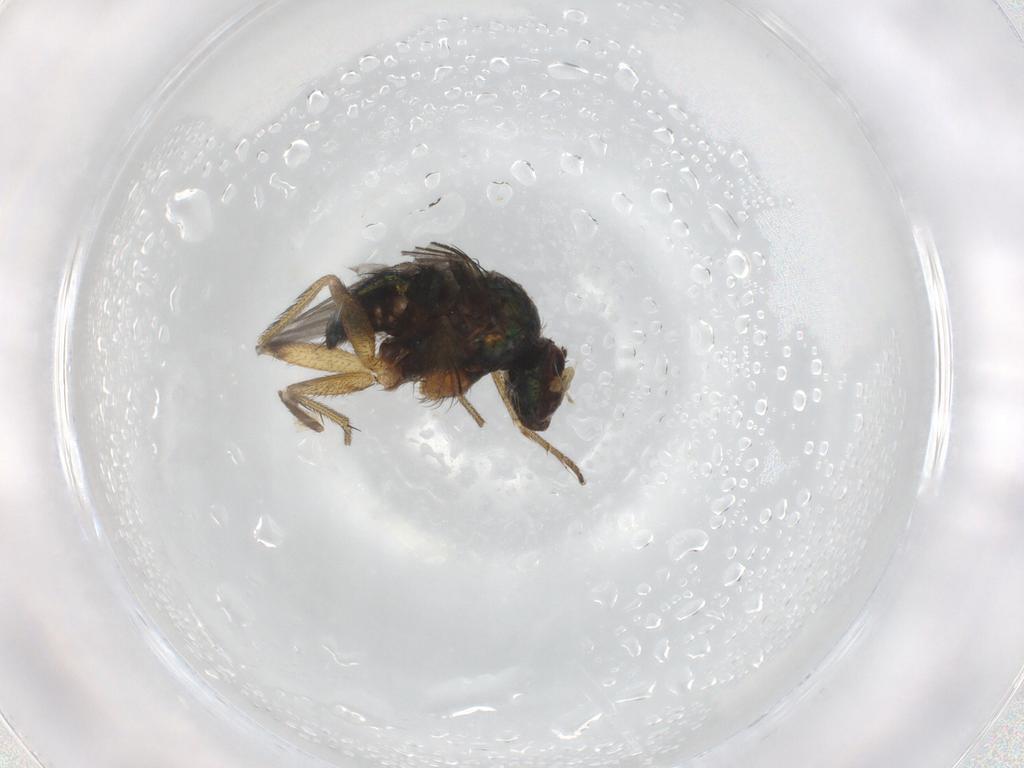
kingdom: Animalia
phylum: Arthropoda
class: Insecta
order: Diptera
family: Dolichopodidae
